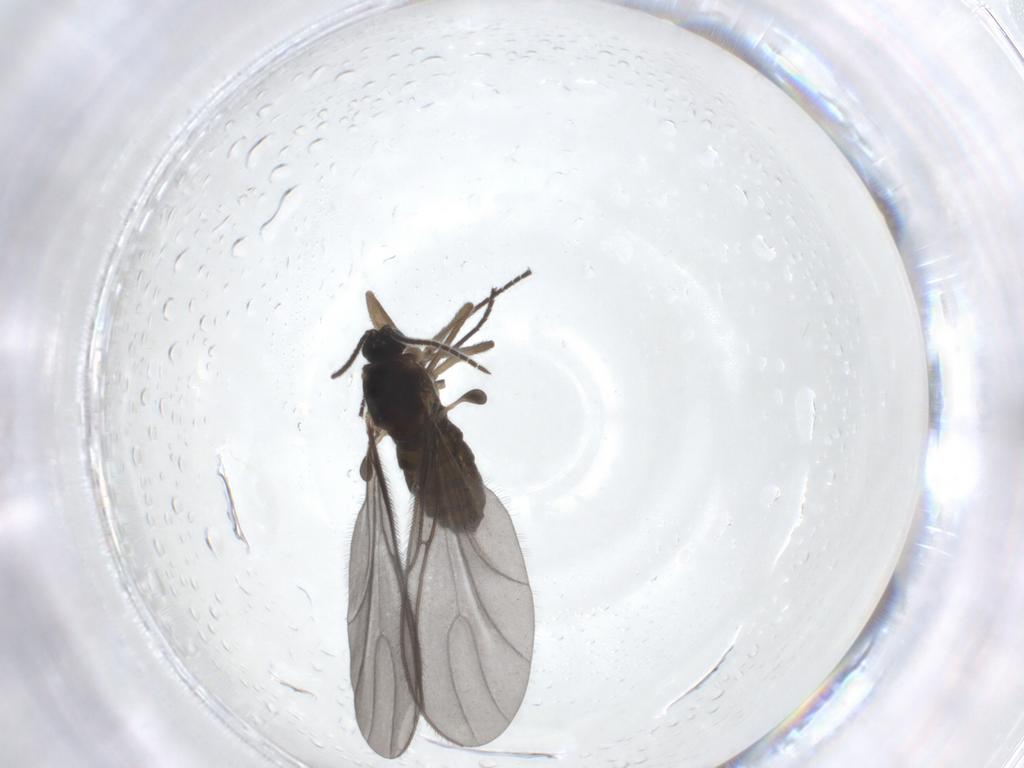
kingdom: Animalia
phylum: Arthropoda
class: Insecta
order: Diptera
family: Sciaridae
